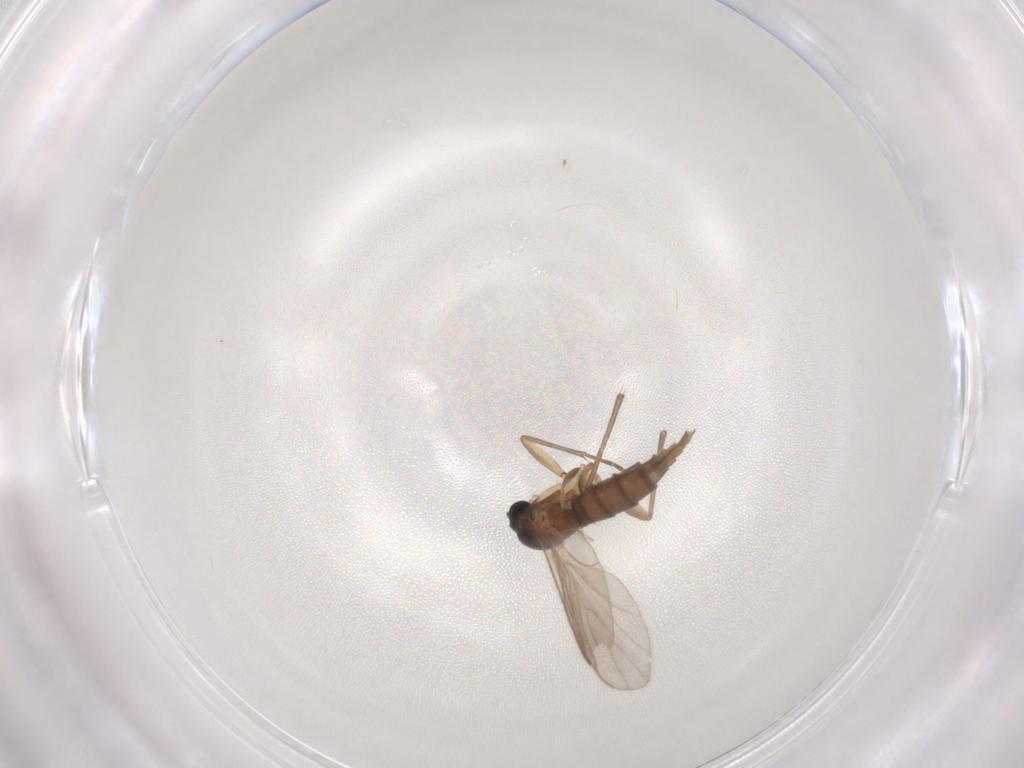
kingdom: Animalia
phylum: Arthropoda
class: Insecta
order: Diptera
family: Sciaridae
